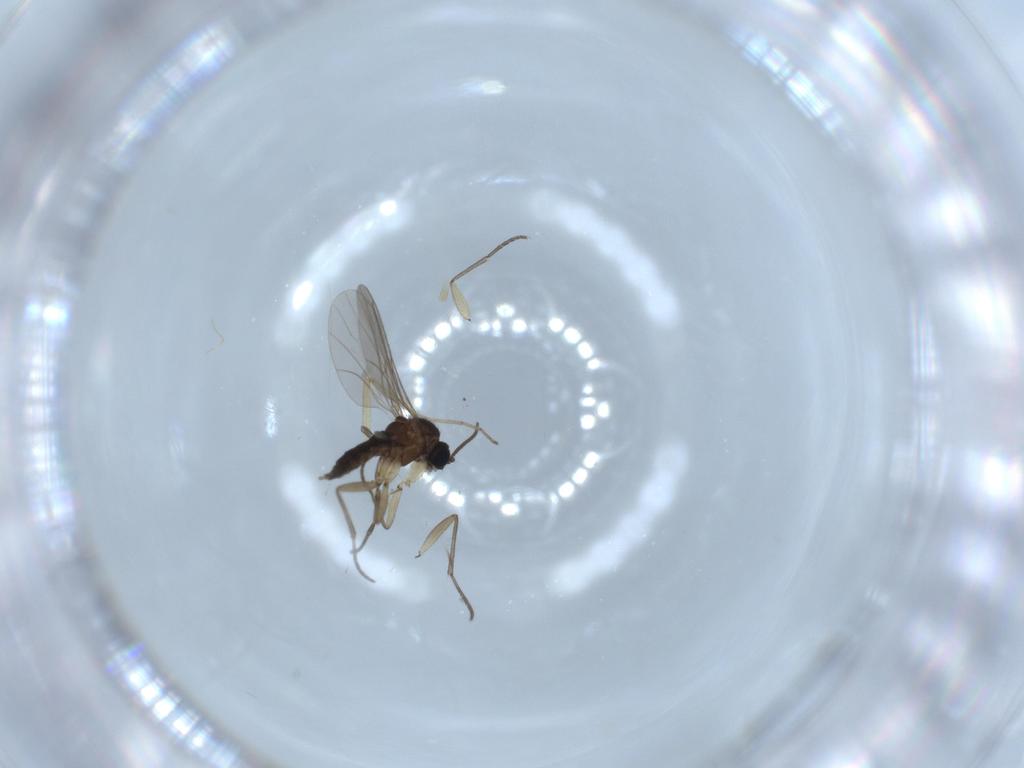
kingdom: Animalia
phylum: Arthropoda
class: Insecta
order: Diptera
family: Sciaridae
